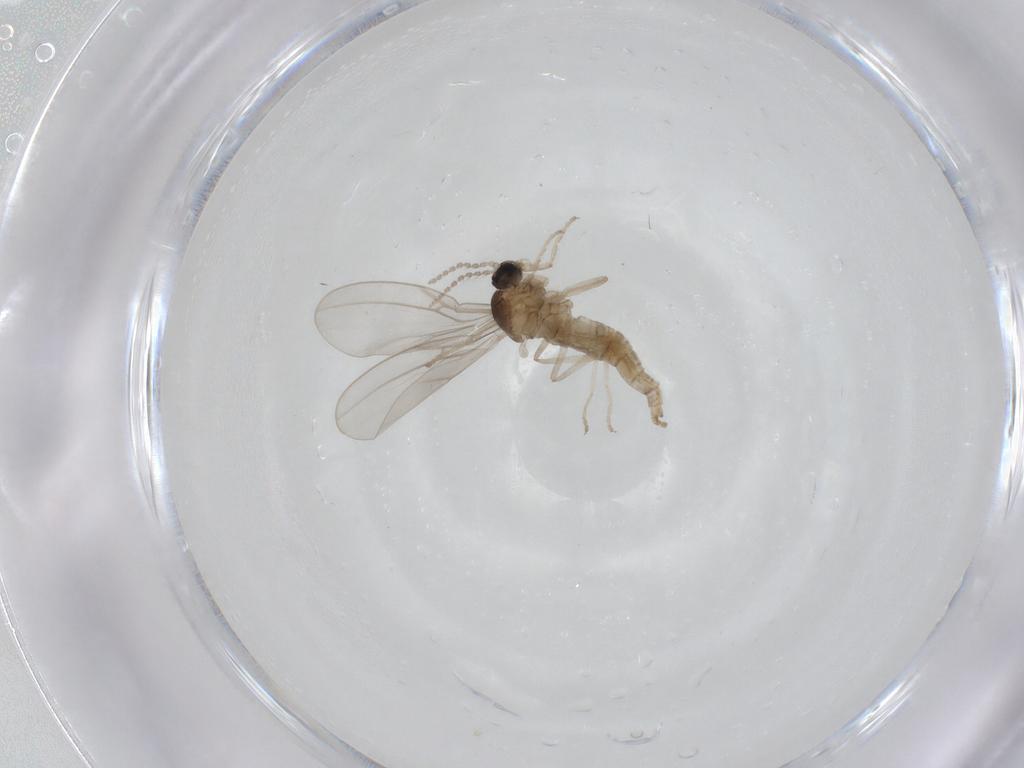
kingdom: Animalia
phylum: Arthropoda
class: Insecta
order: Diptera
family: Cecidomyiidae
